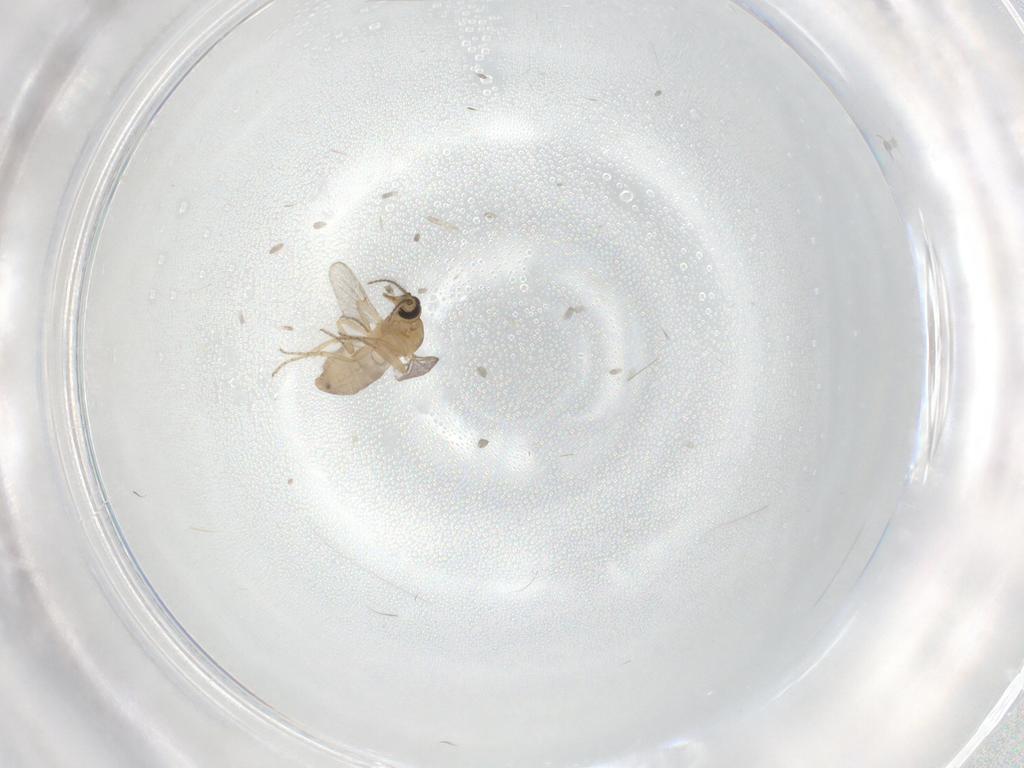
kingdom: Animalia
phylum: Arthropoda
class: Insecta
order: Diptera
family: Ceratopogonidae
